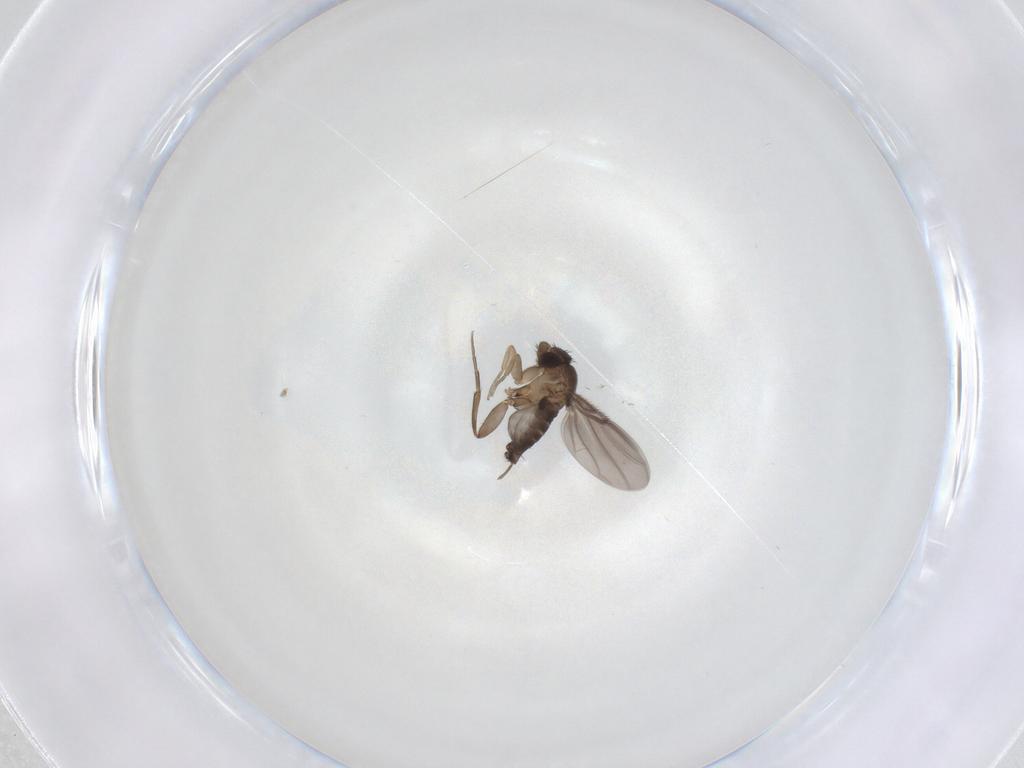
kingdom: Animalia
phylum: Arthropoda
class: Insecta
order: Diptera
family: Phoridae
